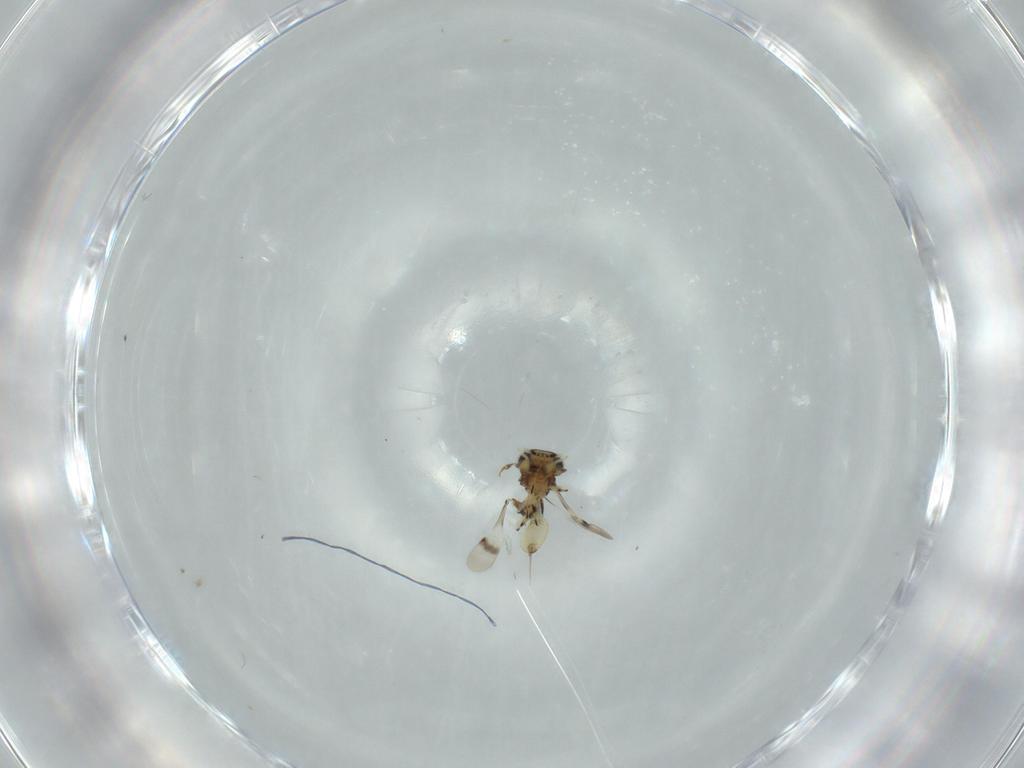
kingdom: Animalia
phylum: Arthropoda
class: Insecta
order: Hymenoptera
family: Scelionidae
